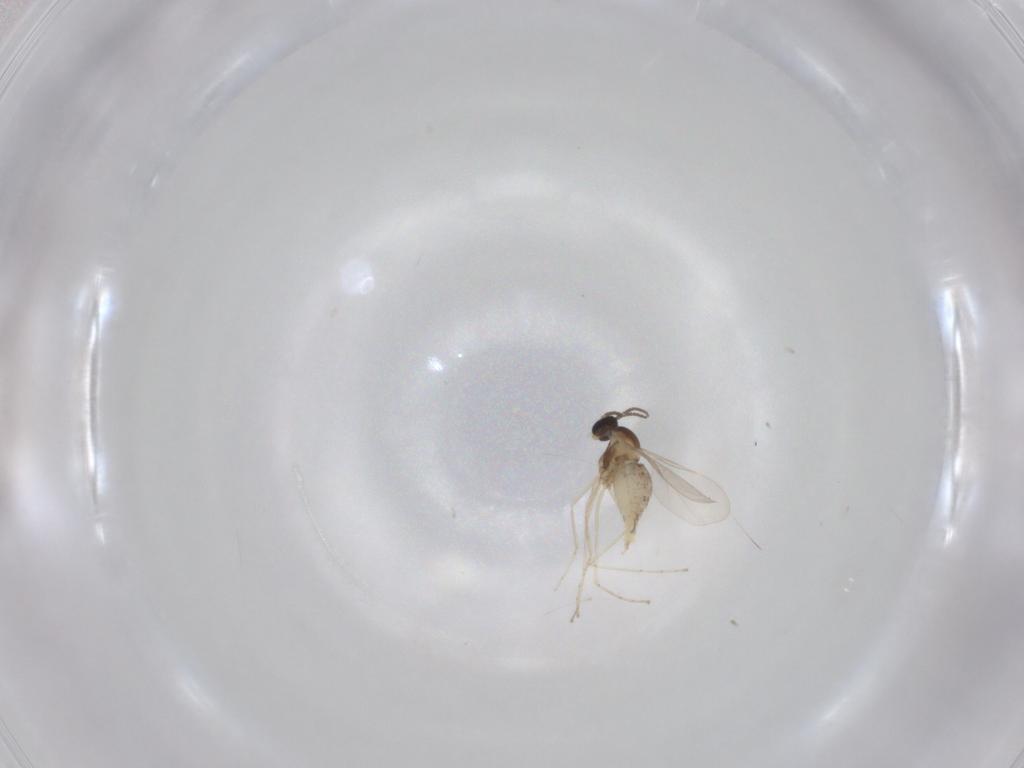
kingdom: Animalia
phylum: Arthropoda
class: Insecta
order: Diptera
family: Cecidomyiidae
